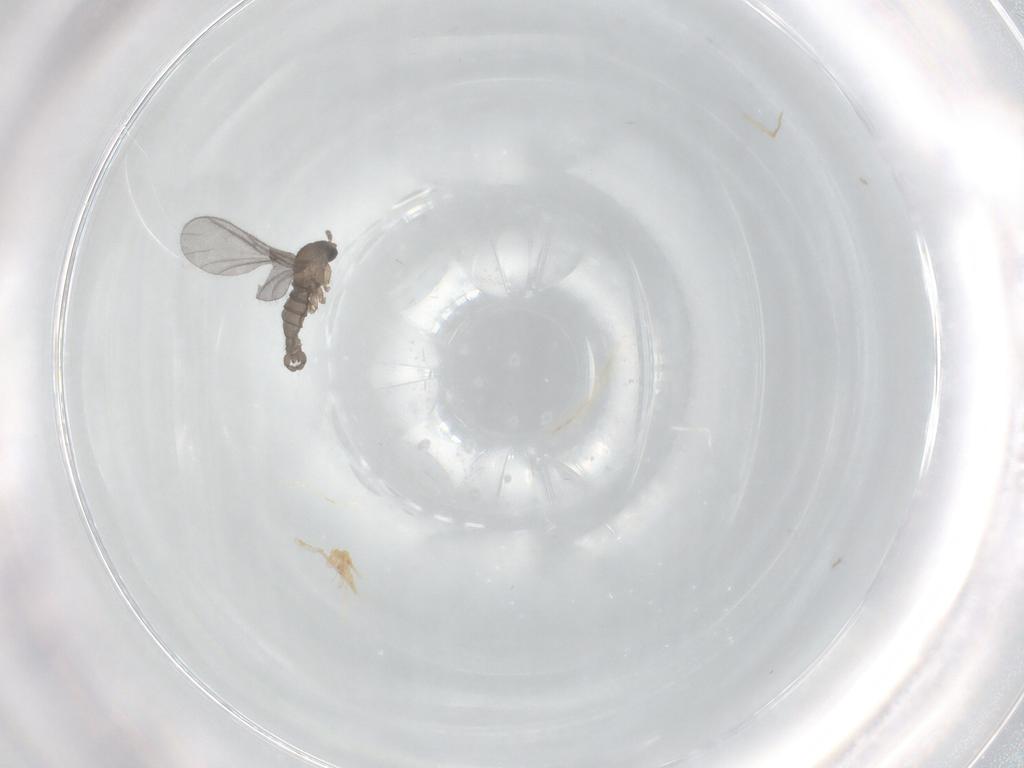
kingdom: Animalia
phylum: Arthropoda
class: Insecta
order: Diptera
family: Sciaridae
